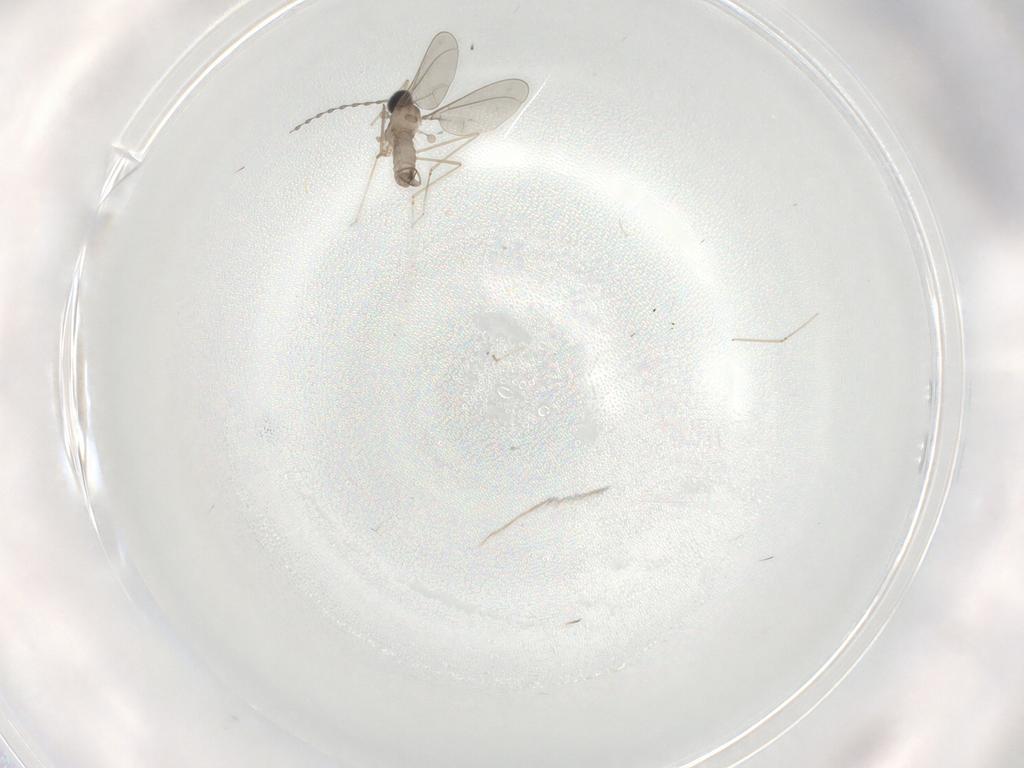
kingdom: Animalia
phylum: Arthropoda
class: Insecta
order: Diptera
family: Chironomidae
